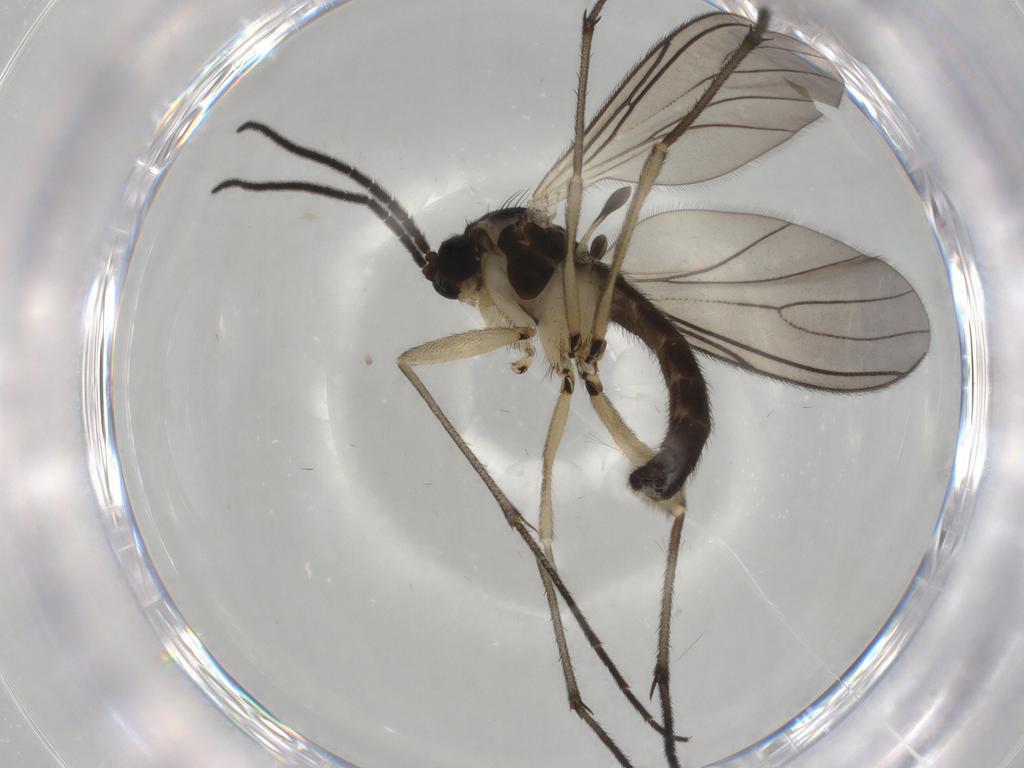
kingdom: Animalia
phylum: Arthropoda
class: Insecta
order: Diptera
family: Sciaridae
